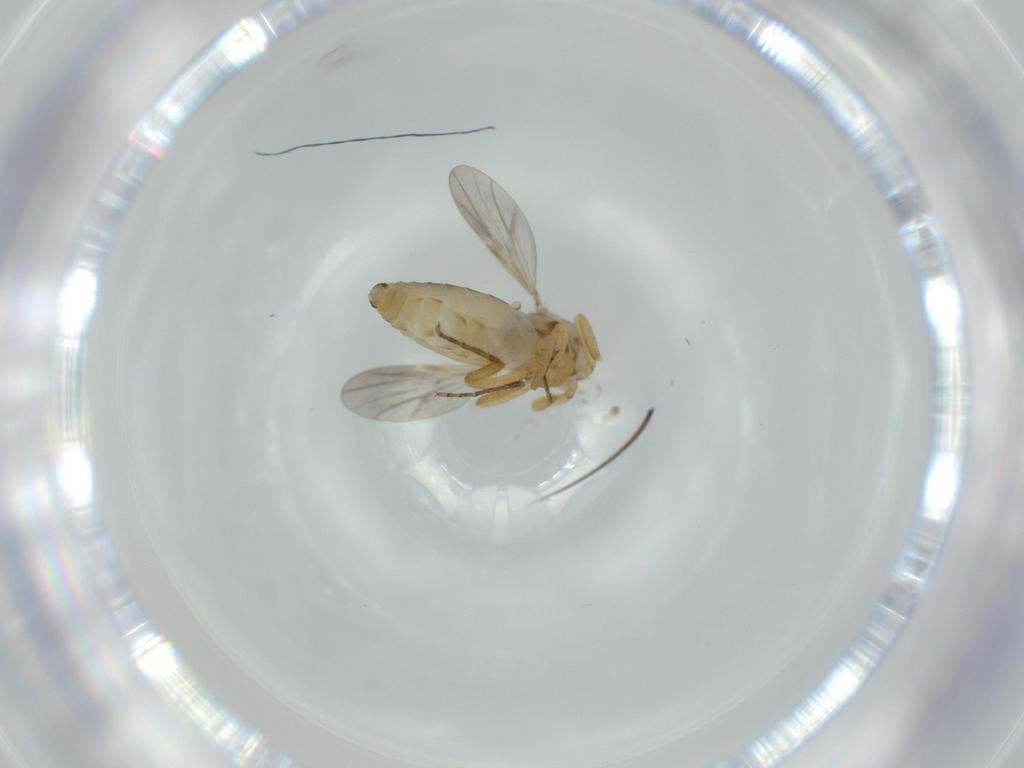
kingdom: Animalia
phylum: Arthropoda
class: Insecta
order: Diptera
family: Ceratopogonidae
